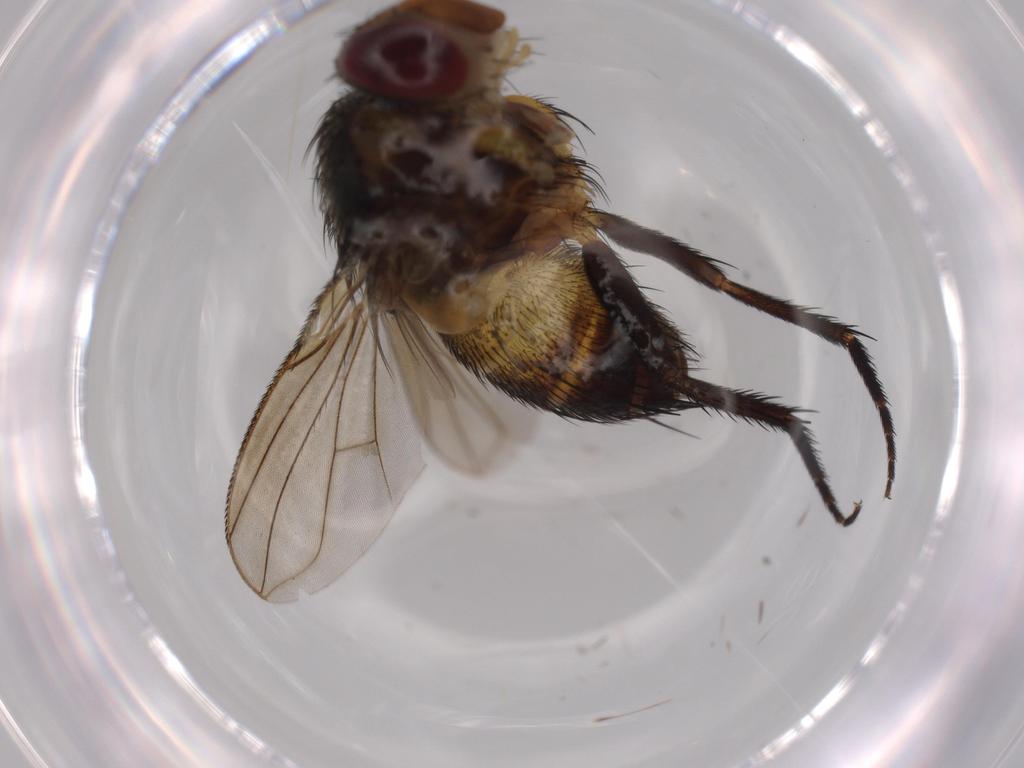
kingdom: Animalia
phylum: Arthropoda
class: Insecta
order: Diptera
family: Sciaridae
